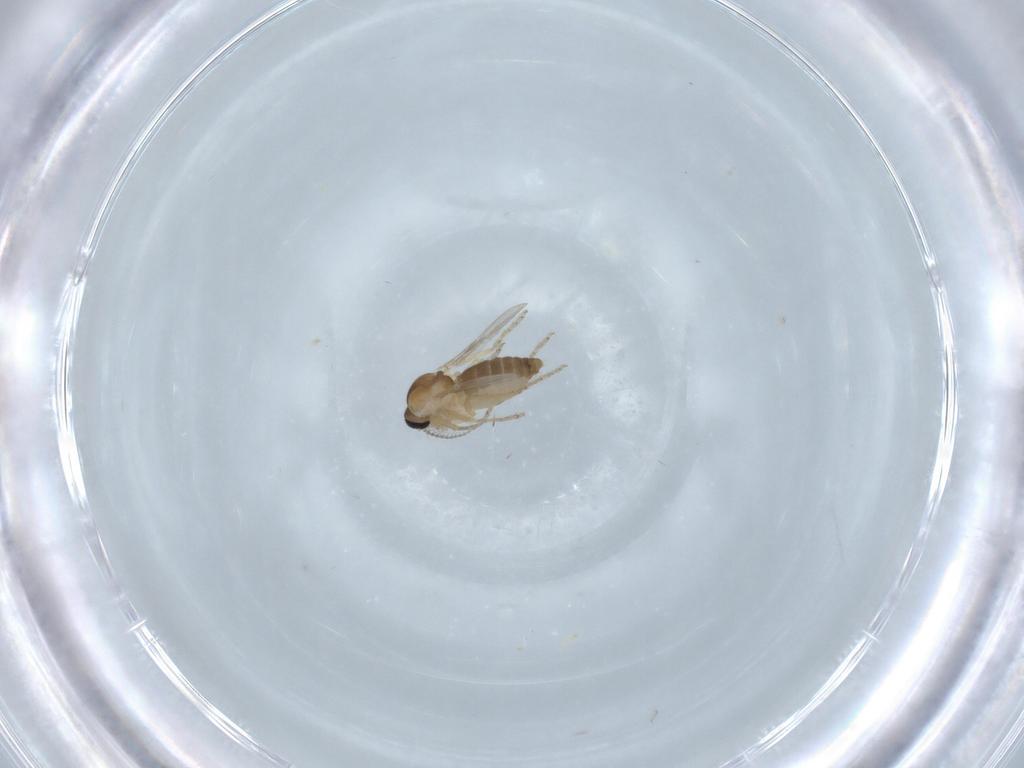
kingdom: Animalia
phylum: Arthropoda
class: Insecta
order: Diptera
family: Ceratopogonidae
